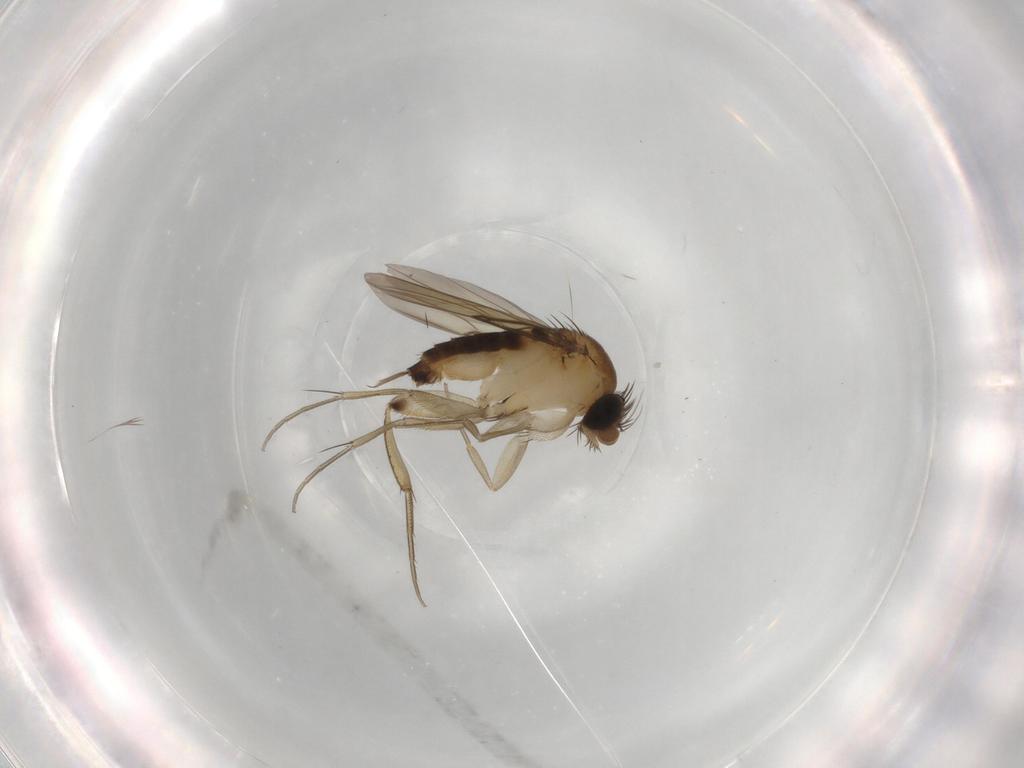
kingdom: Animalia
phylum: Arthropoda
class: Insecta
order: Diptera
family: Phoridae
